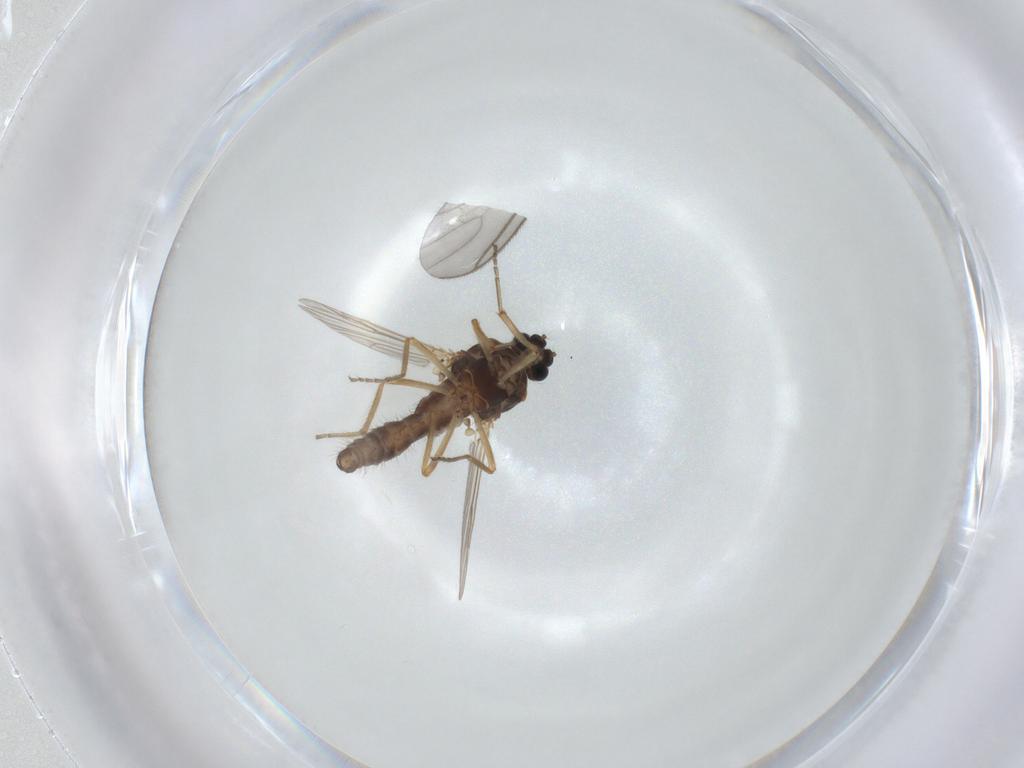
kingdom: Animalia
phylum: Arthropoda
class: Insecta
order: Diptera
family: Ceratopogonidae
